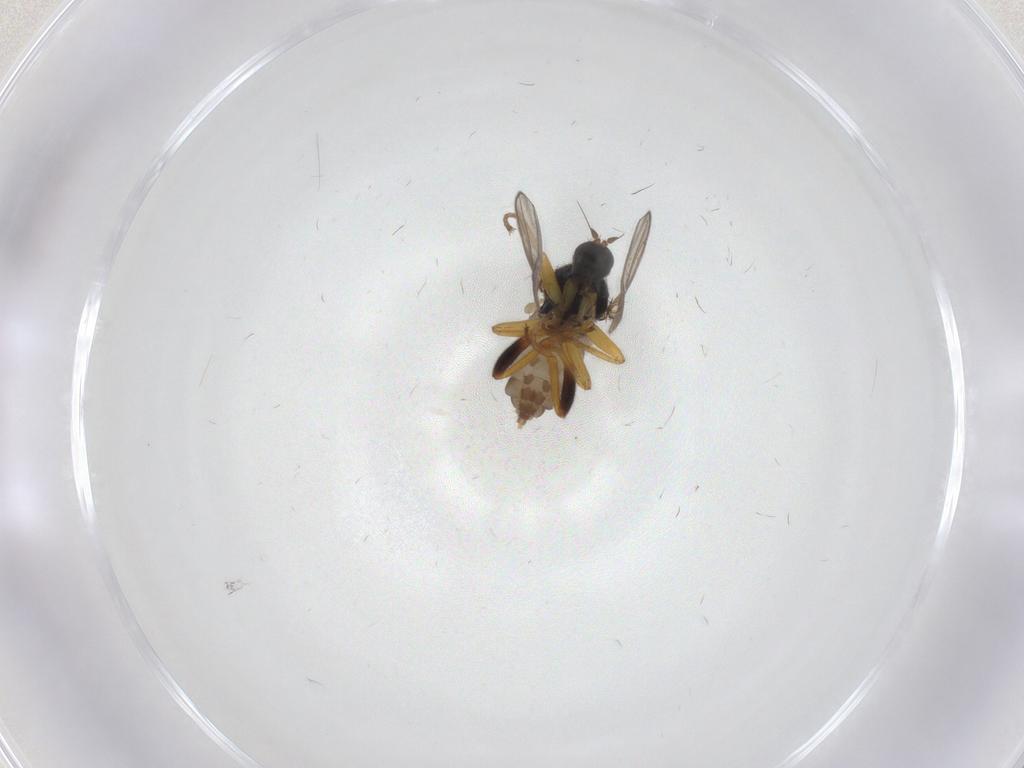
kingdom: Animalia
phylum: Arthropoda
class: Insecta
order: Diptera
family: Hybotidae
